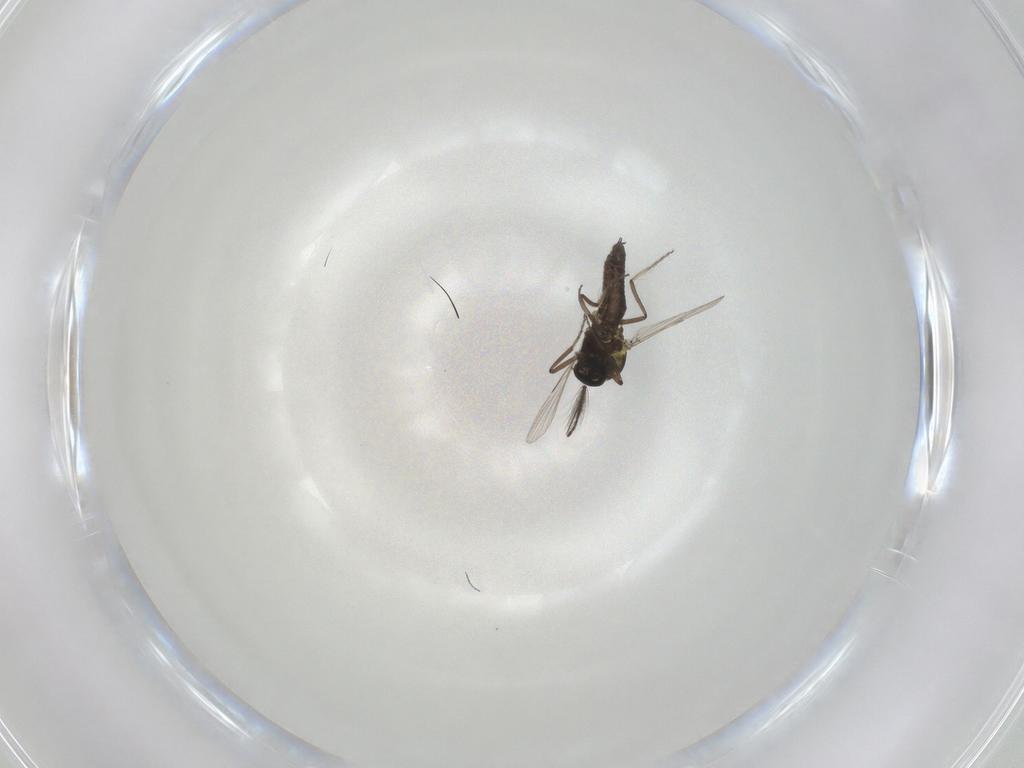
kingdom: Animalia
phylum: Arthropoda
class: Insecta
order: Diptera
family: Ceratopogonidae
